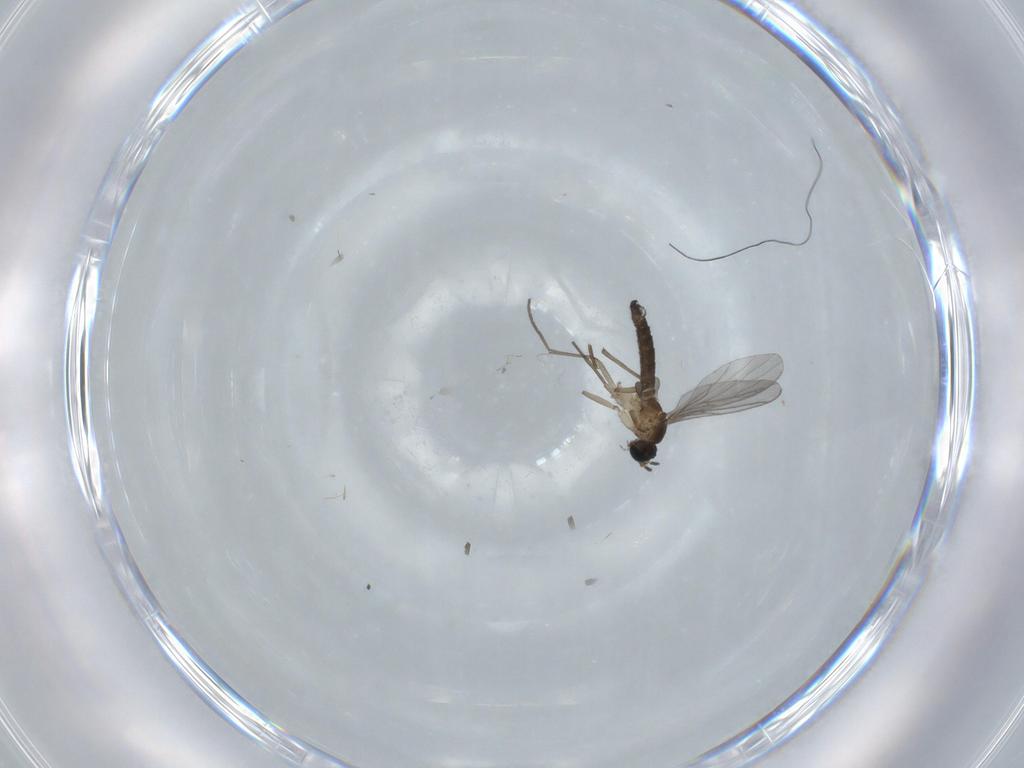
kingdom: Animalia
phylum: Arthropoda
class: Insecta
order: Diptera
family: Sciaridae
